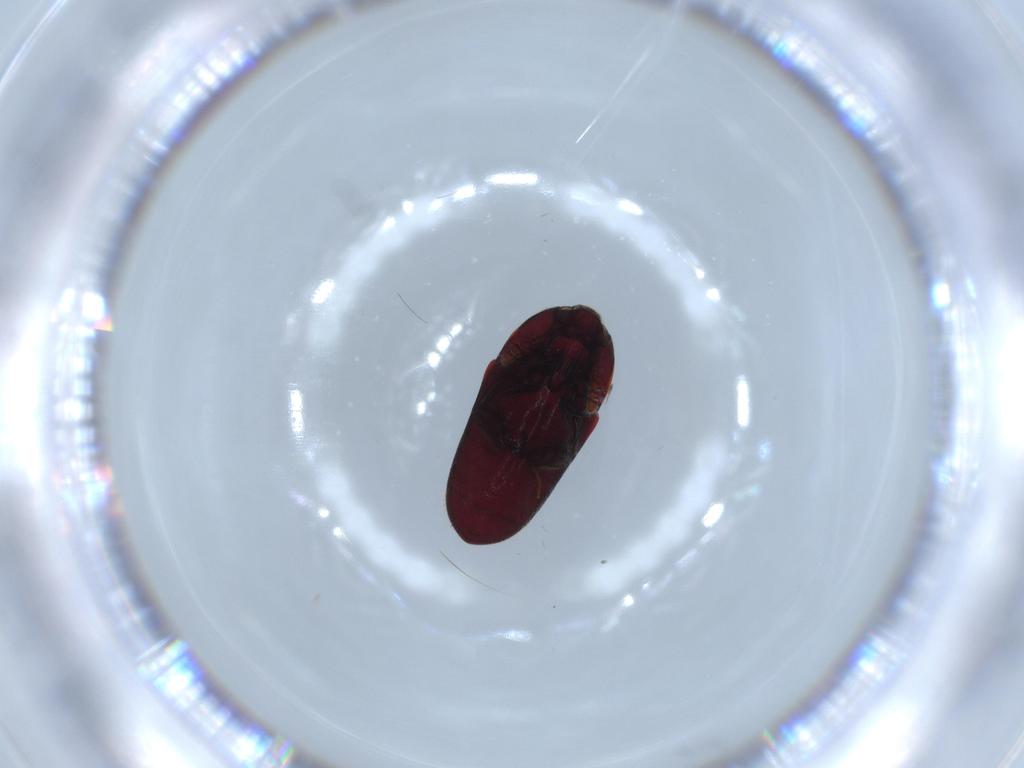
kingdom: Animalia
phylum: Arthropoda
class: Insecta
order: Coleoptera
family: Throscidae
